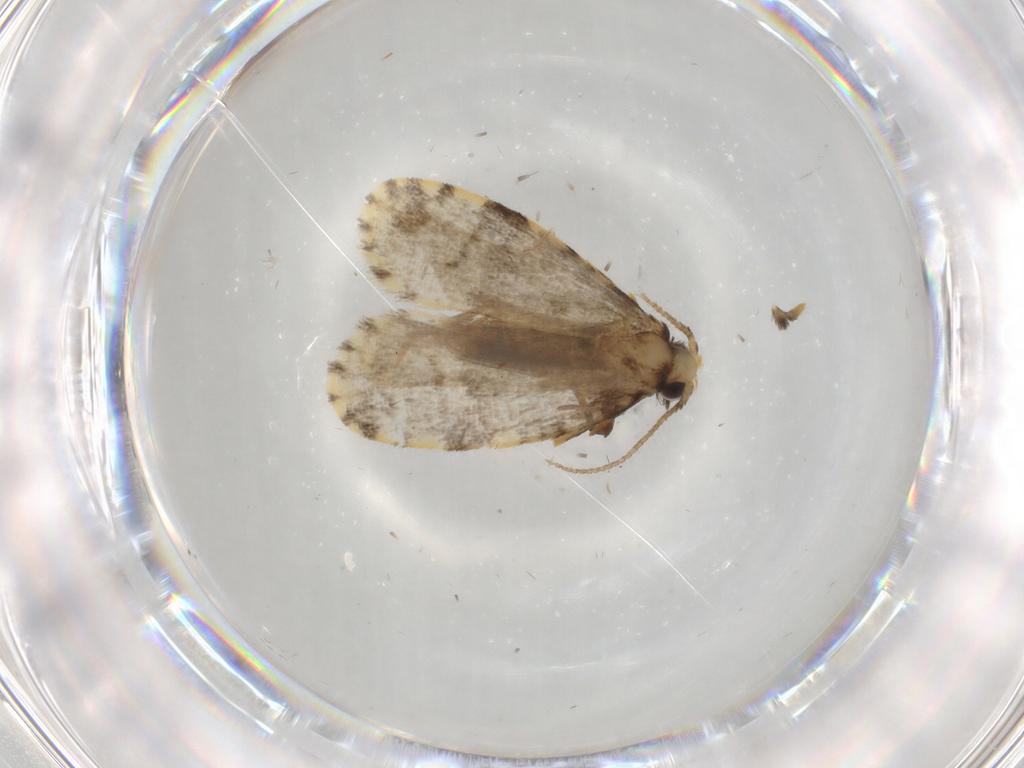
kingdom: Animalia
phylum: Arthropoda
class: Insecta
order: Lepidoptera
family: Psychidae
